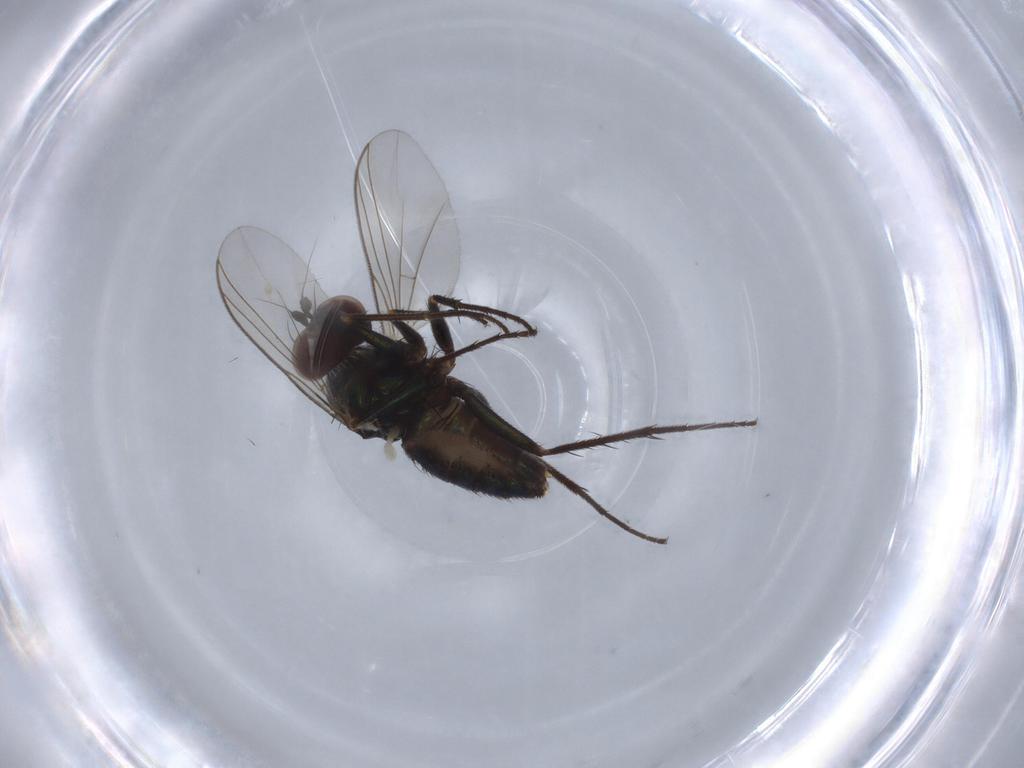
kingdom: Animalia
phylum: Arthropoda
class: Insecta
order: Diptera
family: Dolichopodidae
